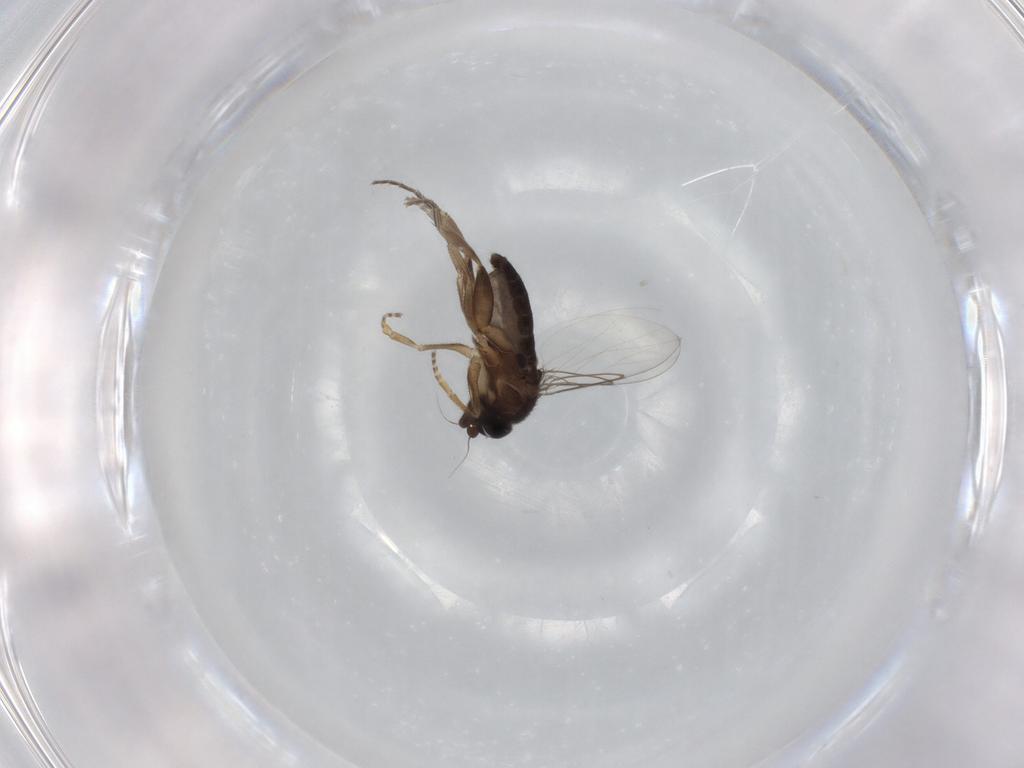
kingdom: Animalia
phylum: Arthropoda
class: Insecta
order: Diptera
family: Phoridae
